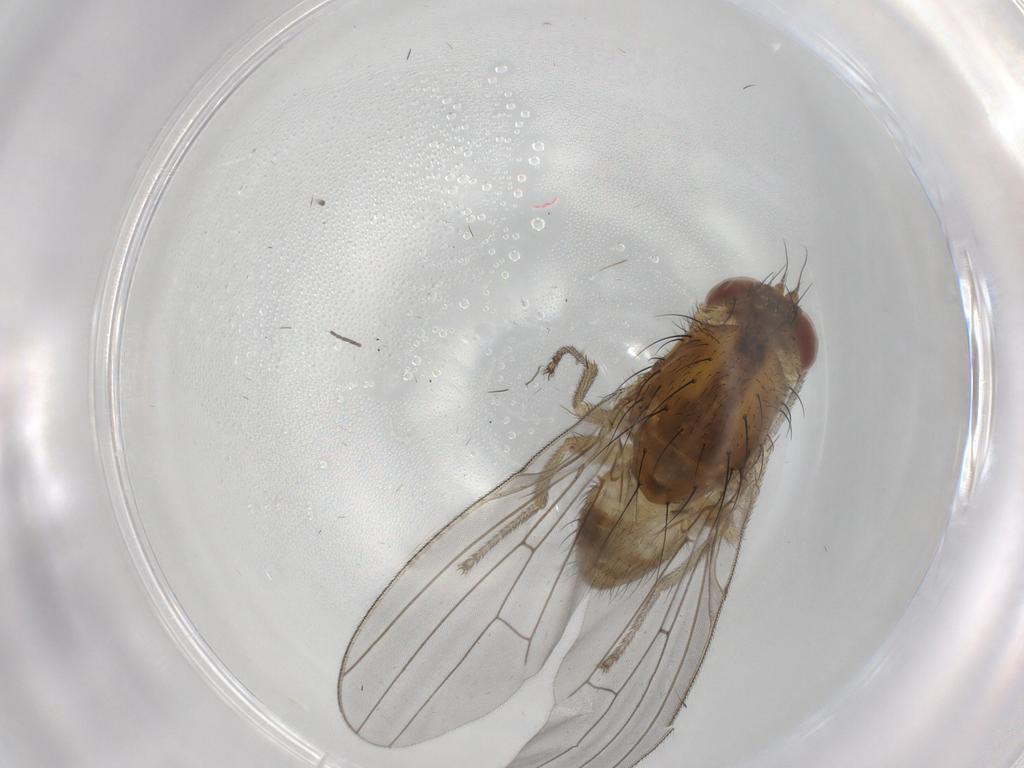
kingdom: Animalia
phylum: Arthropoda
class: Insecta
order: Diptera
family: Lauxaniidae
